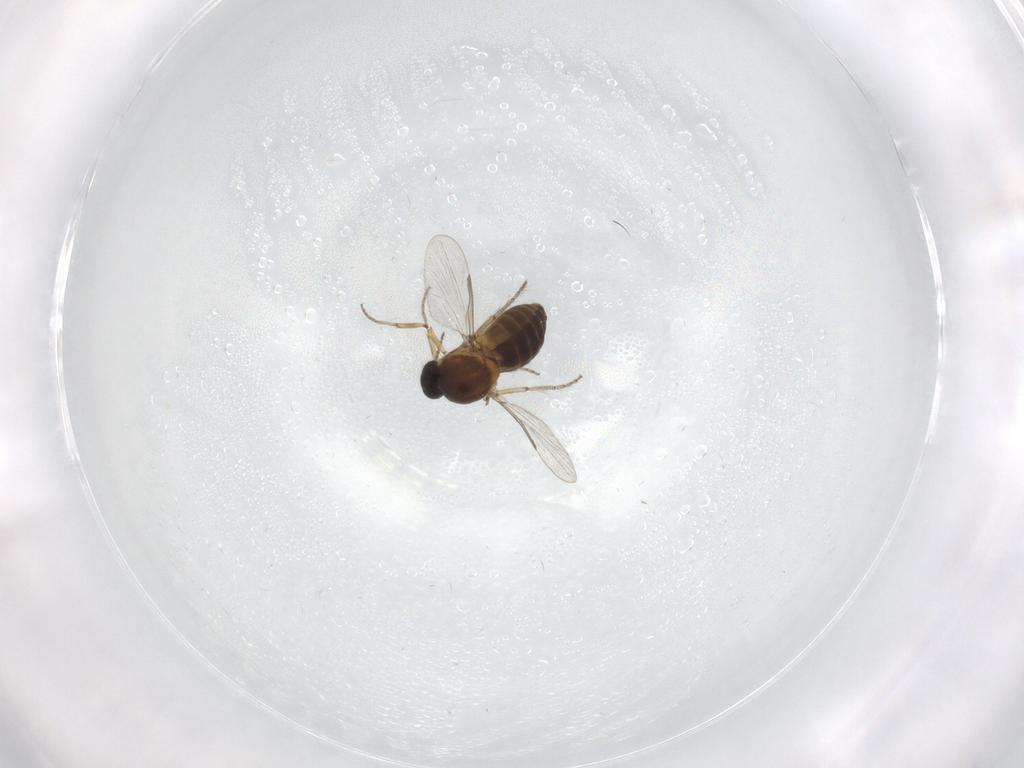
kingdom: Animalia
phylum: Arthropoda
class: Insecta
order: Diptera
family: Ceratopogonidae
